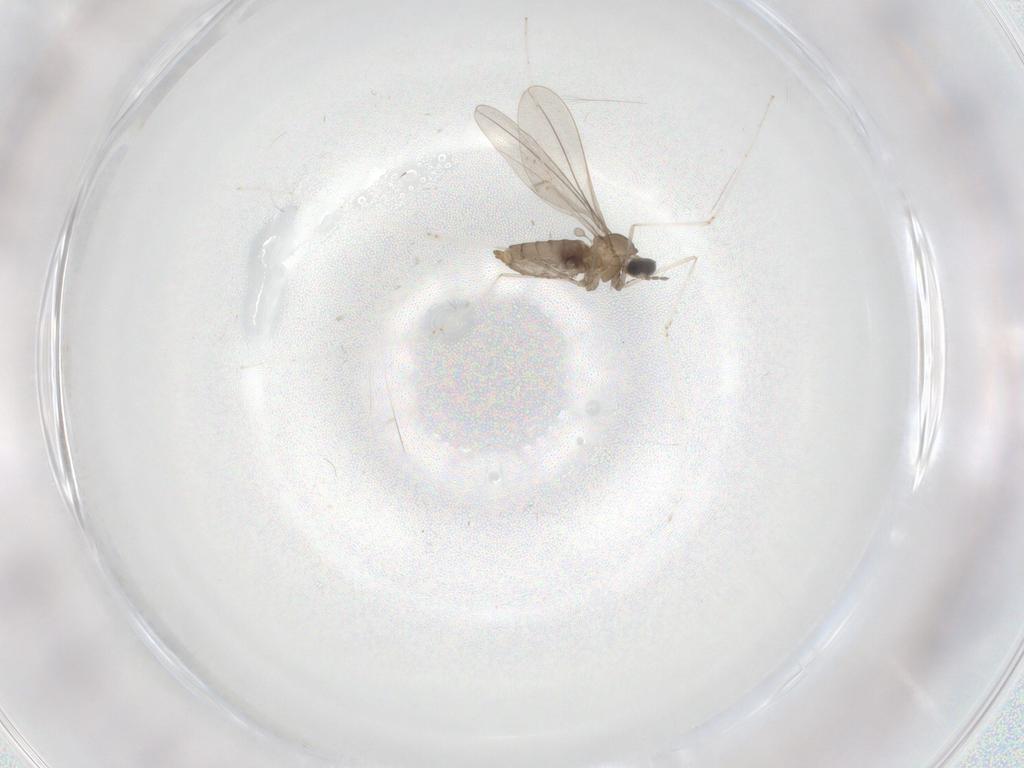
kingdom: Animalia
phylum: Arthropoda
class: Insecta
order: Diptera
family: Cecidomyiidae
